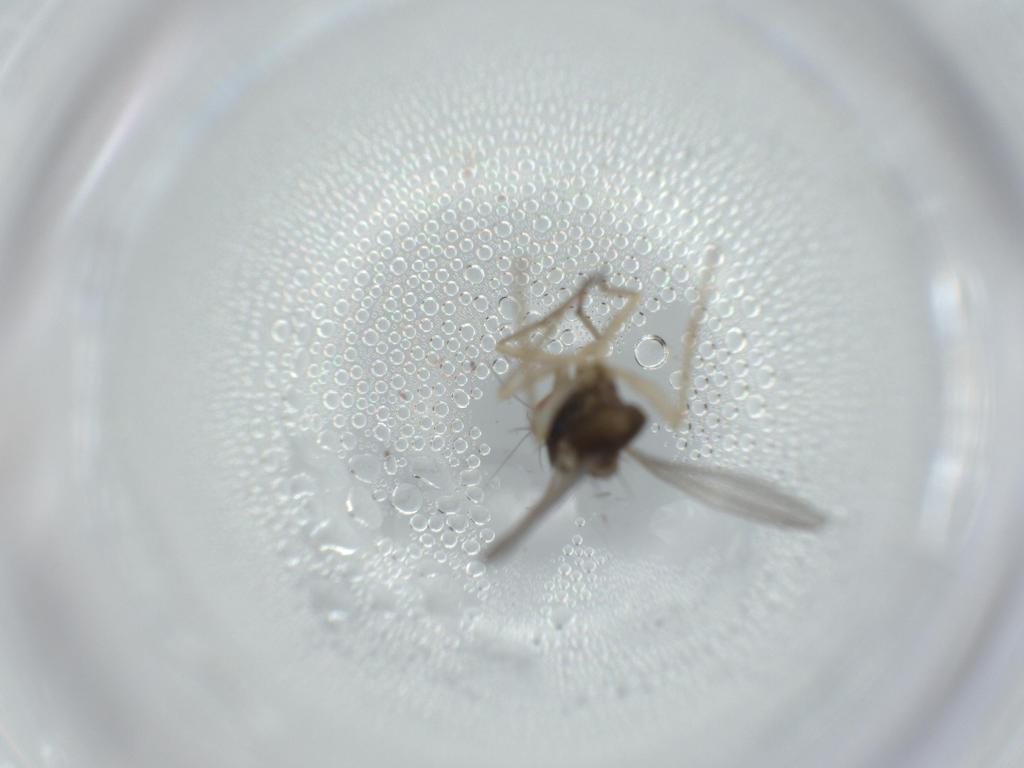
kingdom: Animalia
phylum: Arthropoda
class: Insecta
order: Diptera
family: Dolichopodidae
